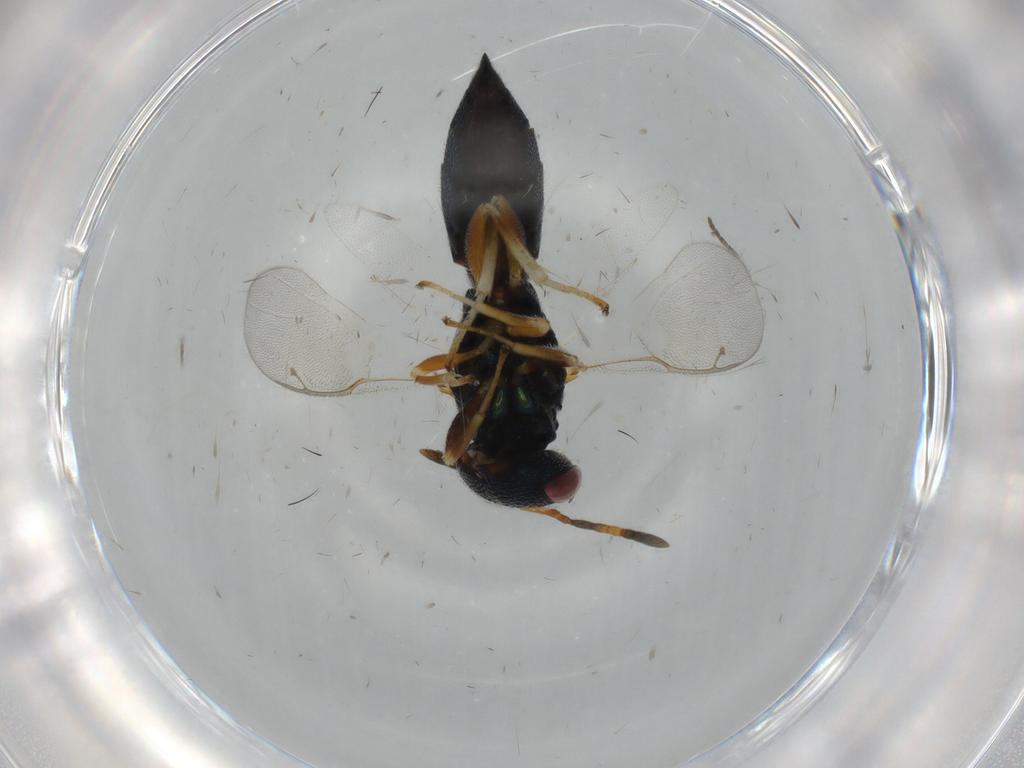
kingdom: Animalia
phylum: Arthropoda
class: Insecta
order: Hymenoptera
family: Pteromalidae
